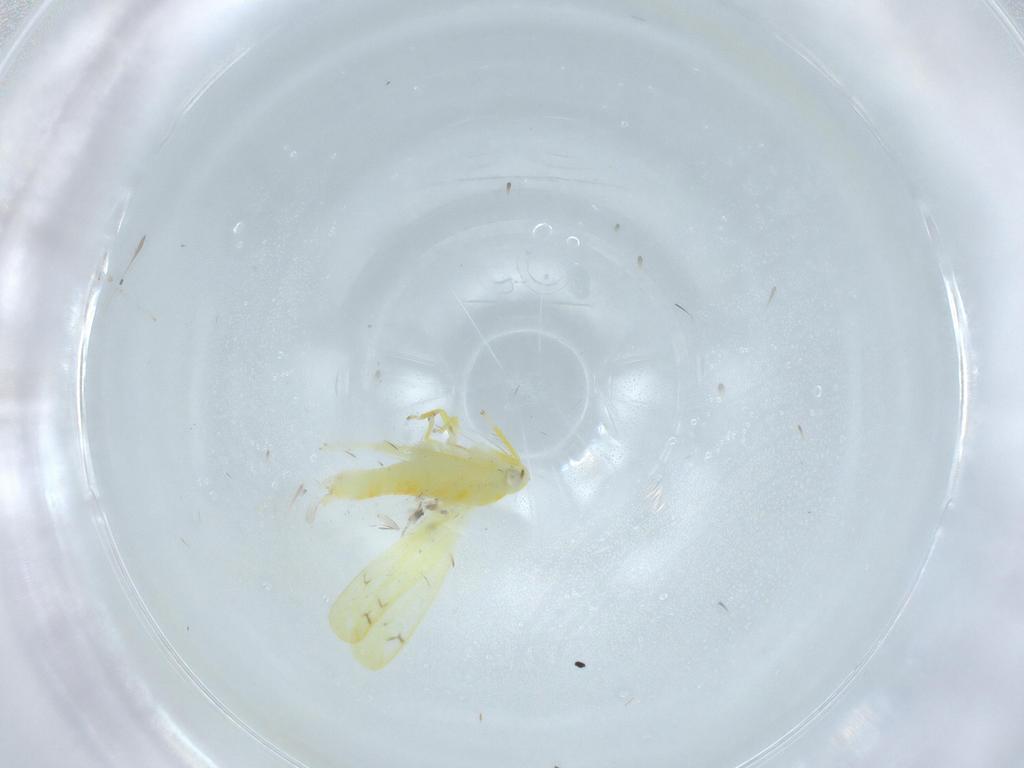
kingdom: Animalia
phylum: Arthropoda
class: Insecta
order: Hemiptera
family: Cicadellidae
